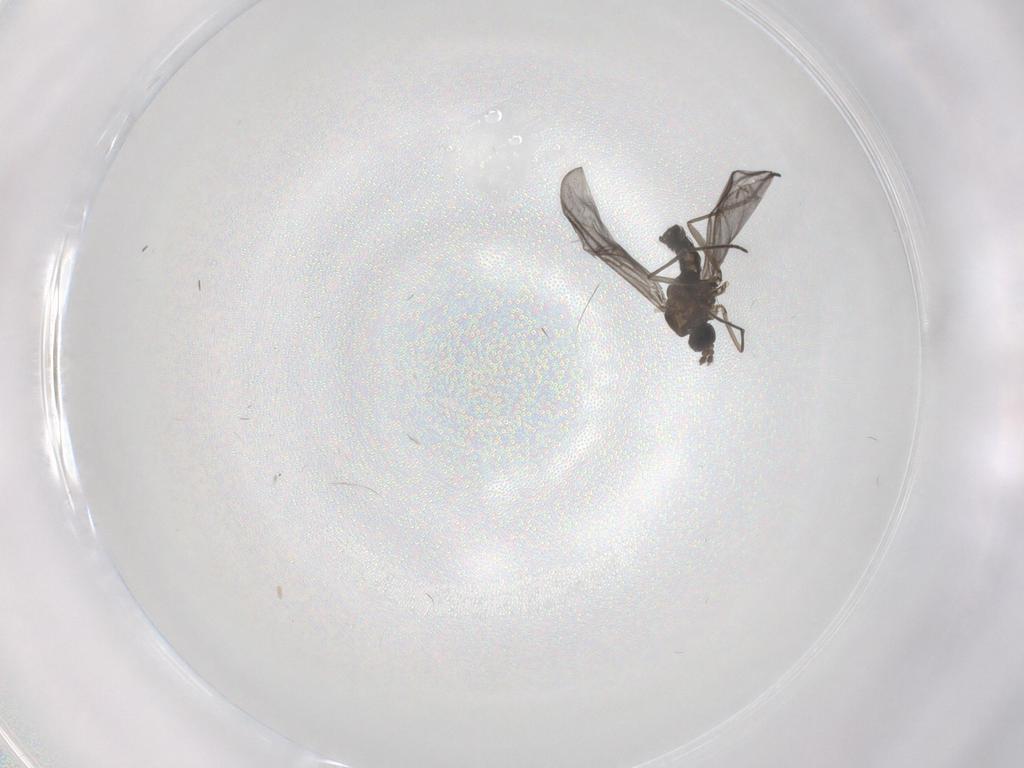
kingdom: Animalia
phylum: Arthropoda
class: Insecta
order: Diptera
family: Sciaridae
